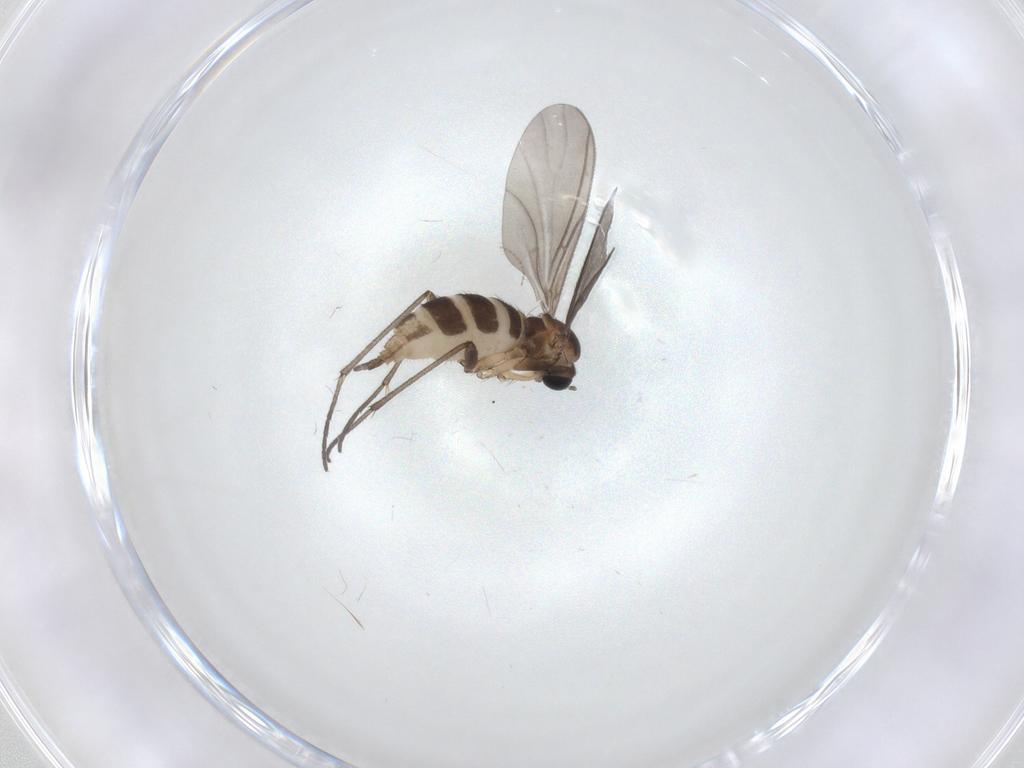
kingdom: Animalia
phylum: Arthropoda
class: Insecta
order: Diptera
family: Sciaridae
